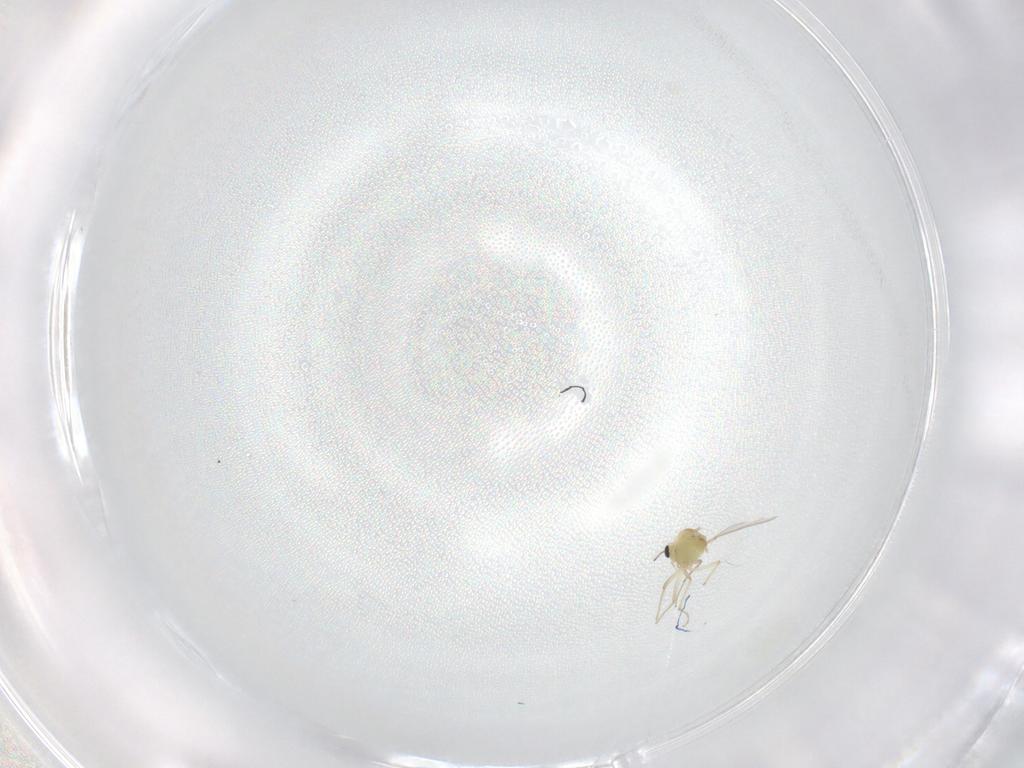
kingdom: Animalia
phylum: Arthropoda
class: Insecta
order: Diptera
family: Chironomidae
